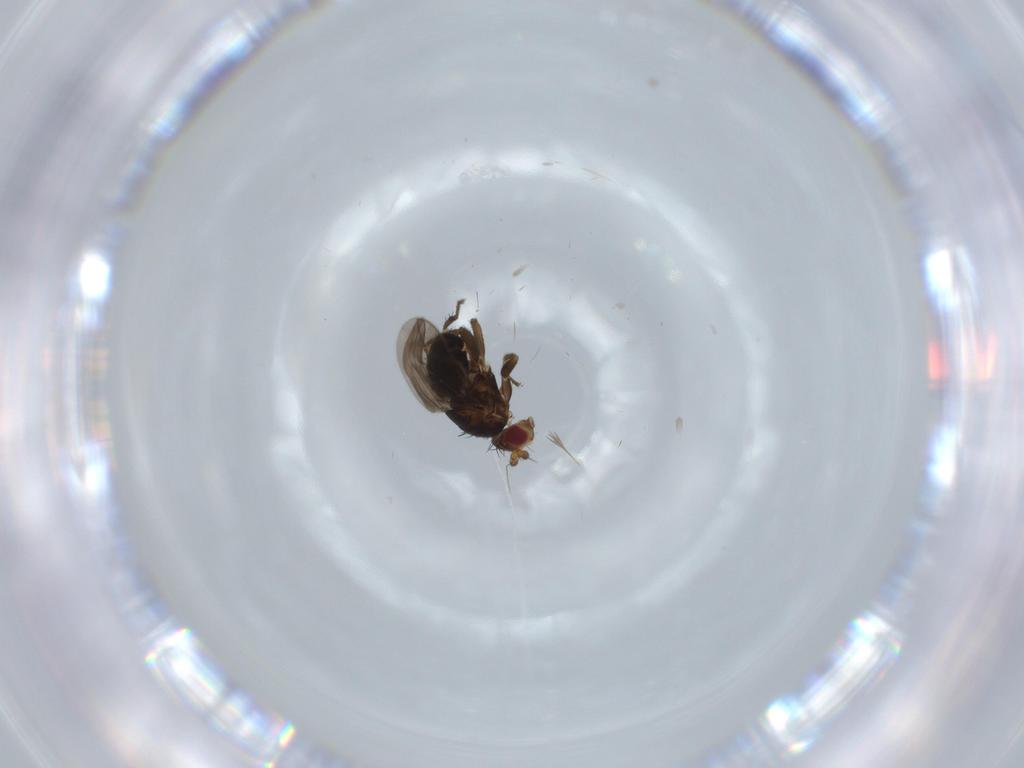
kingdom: Animalia
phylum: Arthropoda
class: Insecta
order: Diptera
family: Sphaeroceridae
